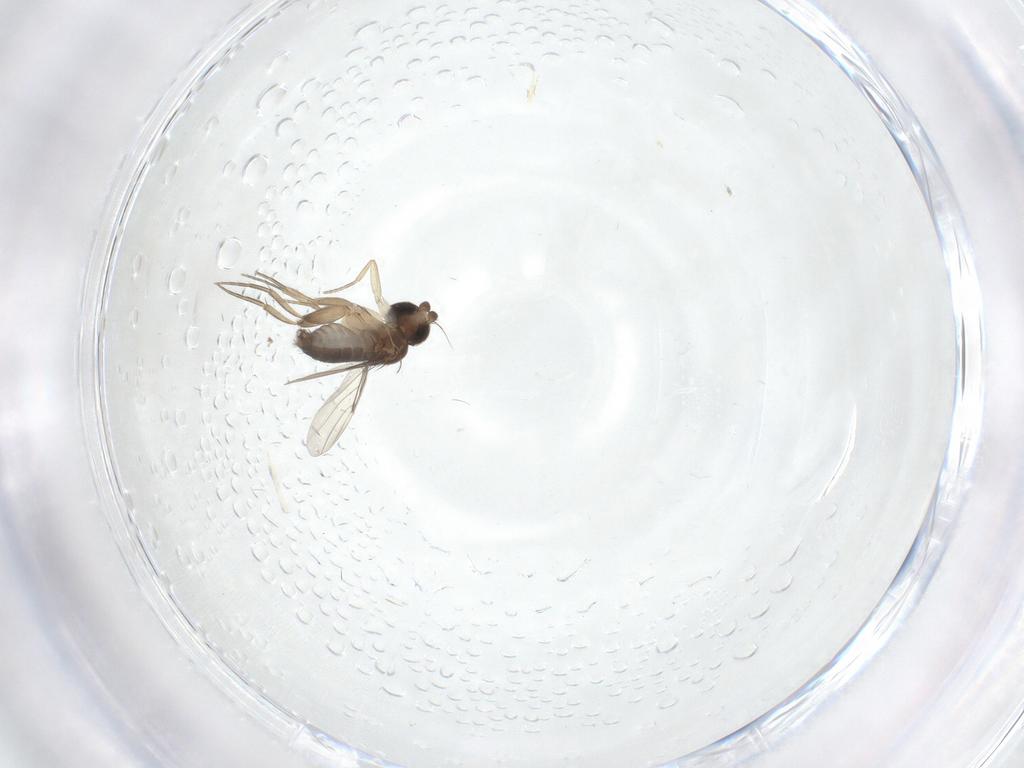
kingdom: Animalia
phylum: Arthropoda
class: Insecta
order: Diptera
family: Phoridae
